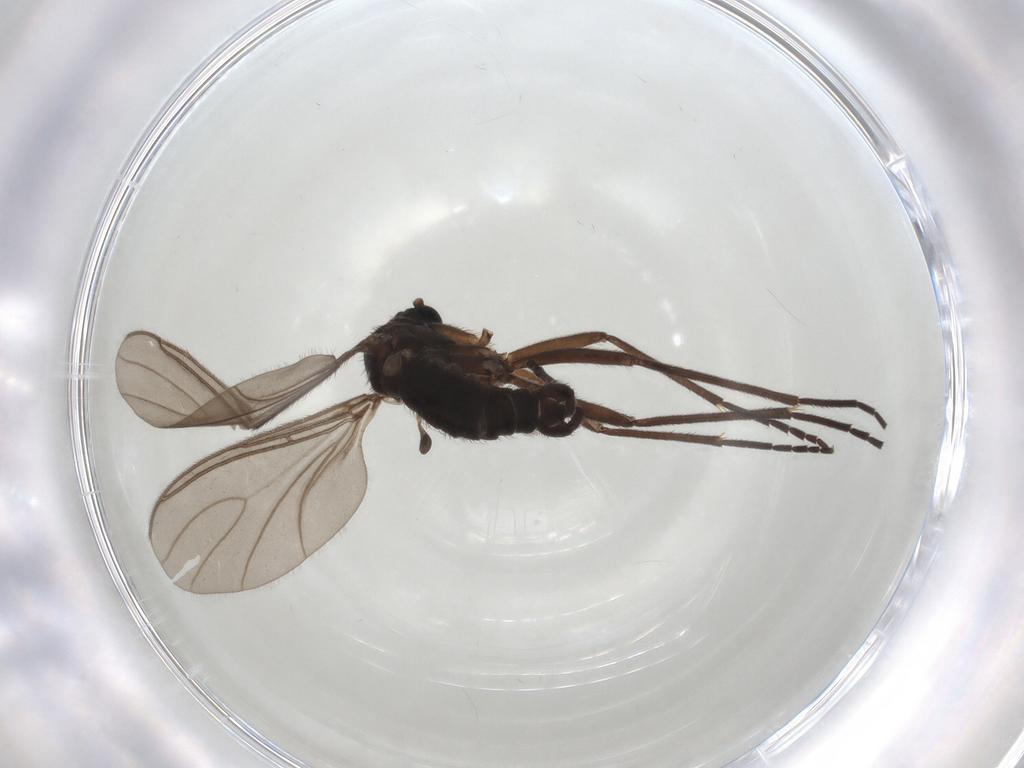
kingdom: Animalia
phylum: Arthropoda
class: Insecta
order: Diptera
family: Sciaridae
